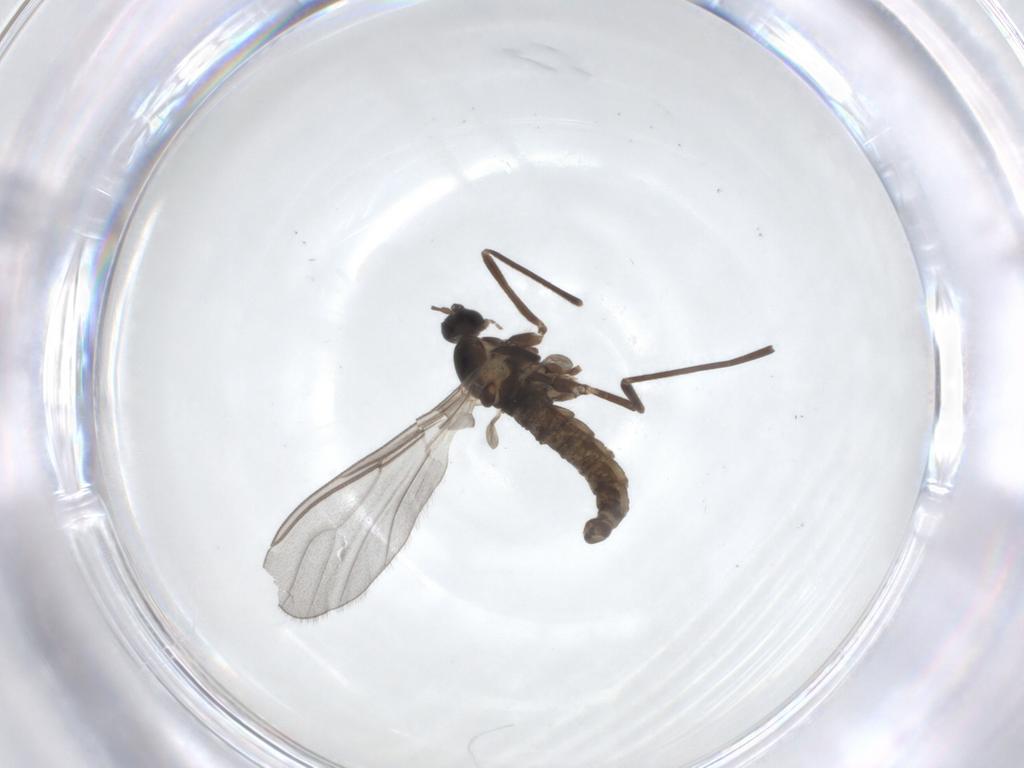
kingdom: Animalia
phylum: Arthropoda
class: Insecta
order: Diptera
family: Cecidomyiidae
